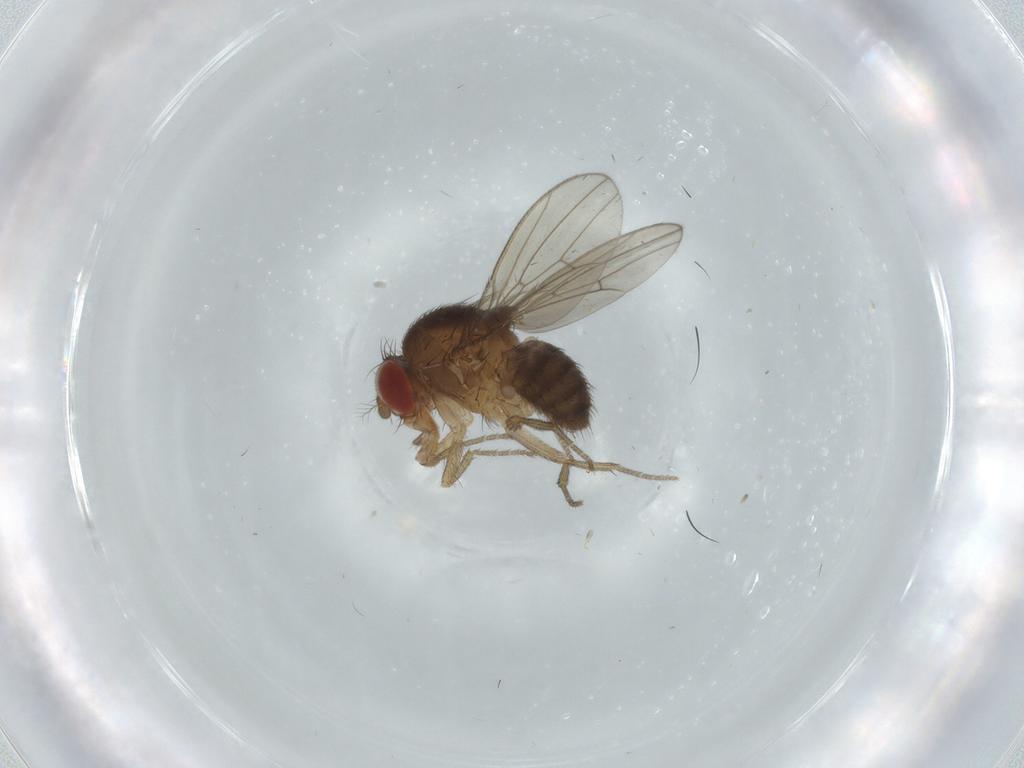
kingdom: Animalia
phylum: Arthropoda
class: Insecta
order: Diptera
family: Drosophilidae
